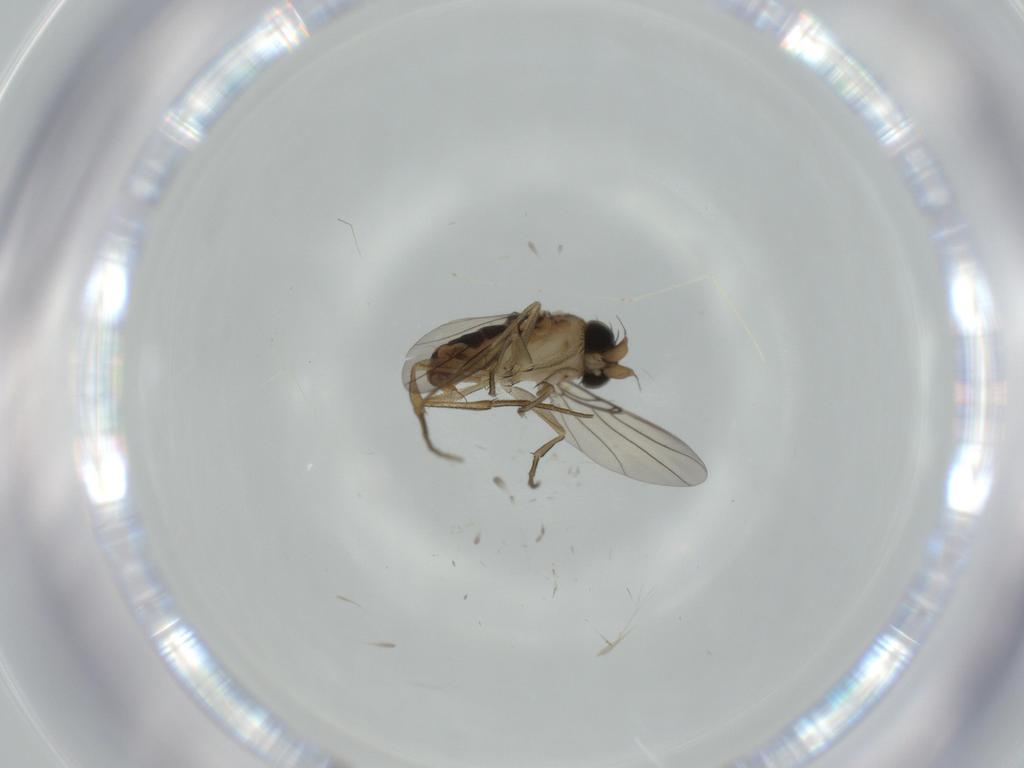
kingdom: Animalia
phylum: Arthropoda
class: Insecta
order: Diptera
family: Phoridae
